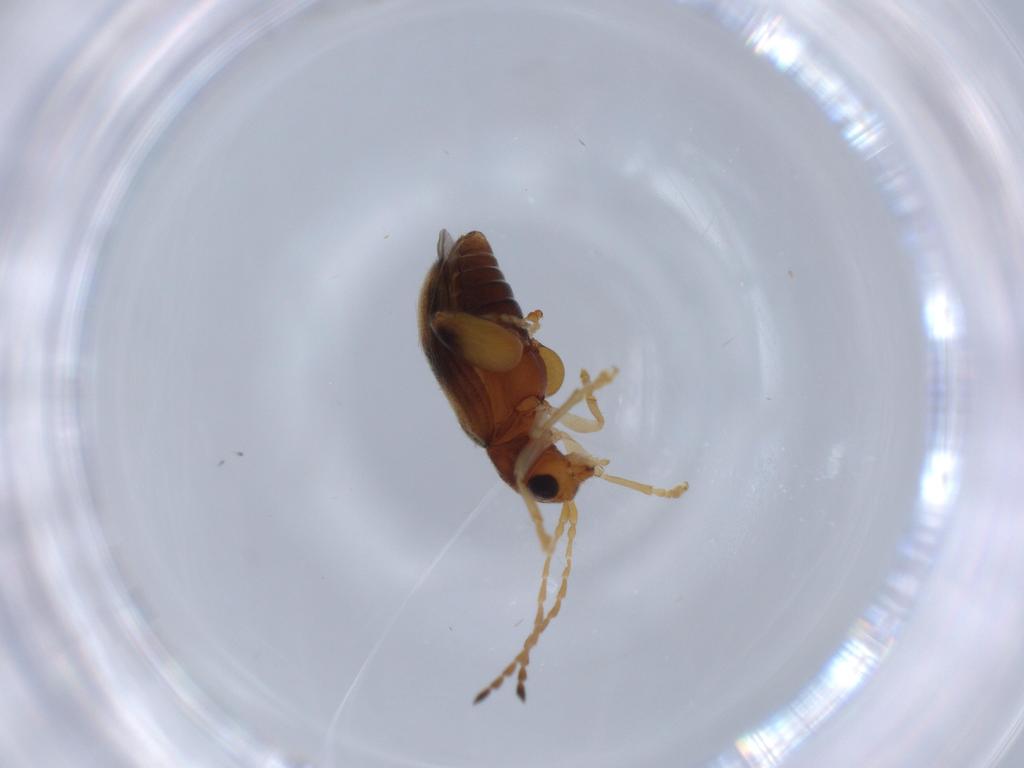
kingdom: Animalia
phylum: Arthropoda
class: Insecta
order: Coleoptera
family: Chrysomelidae
